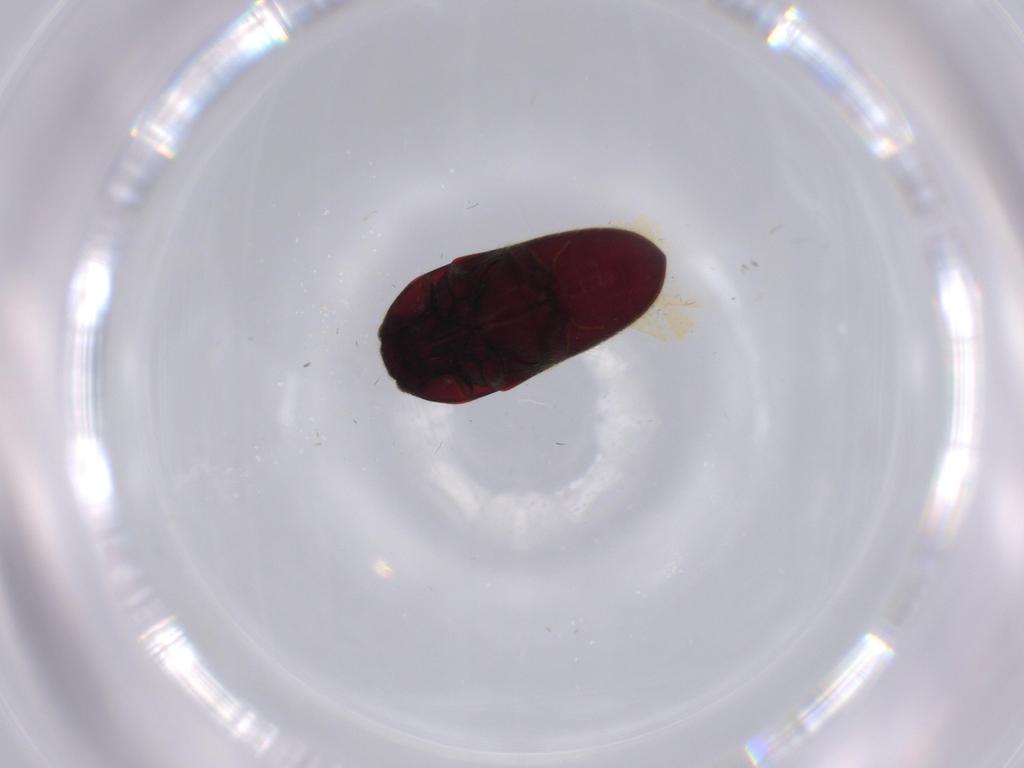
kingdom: Animalia
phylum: Arthropoda
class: Insecta
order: Coleoptera
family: Throscidae
